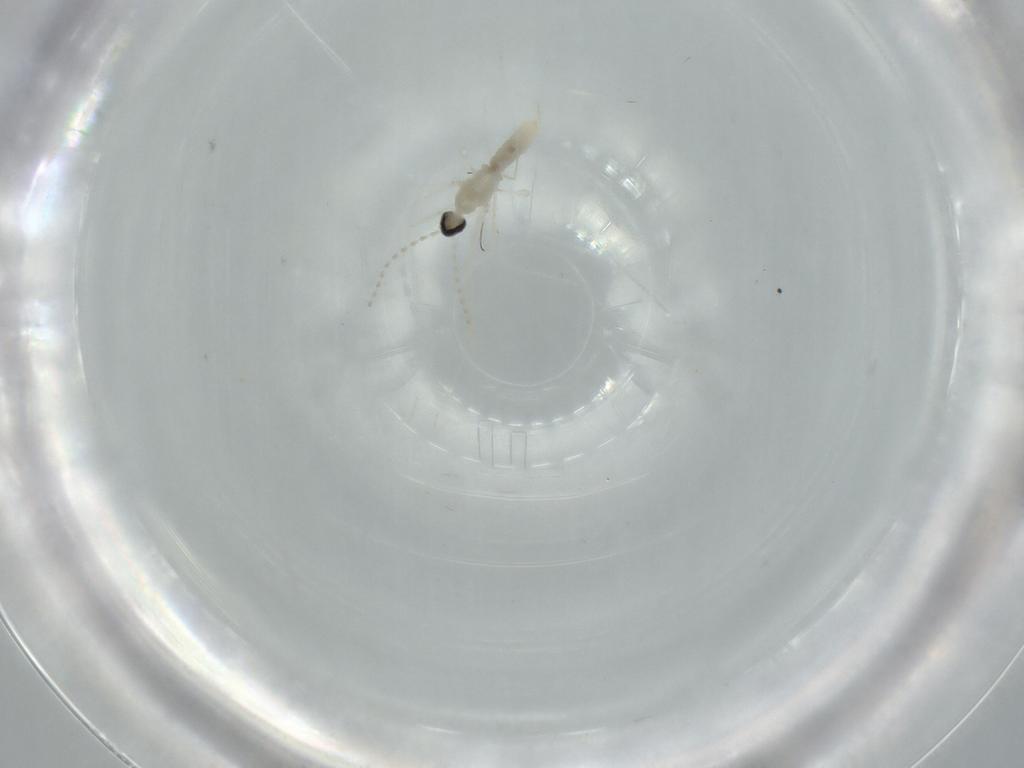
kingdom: Animalia
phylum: Arthropoda
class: Insecta
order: Diptera
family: Cecidomyiidae
